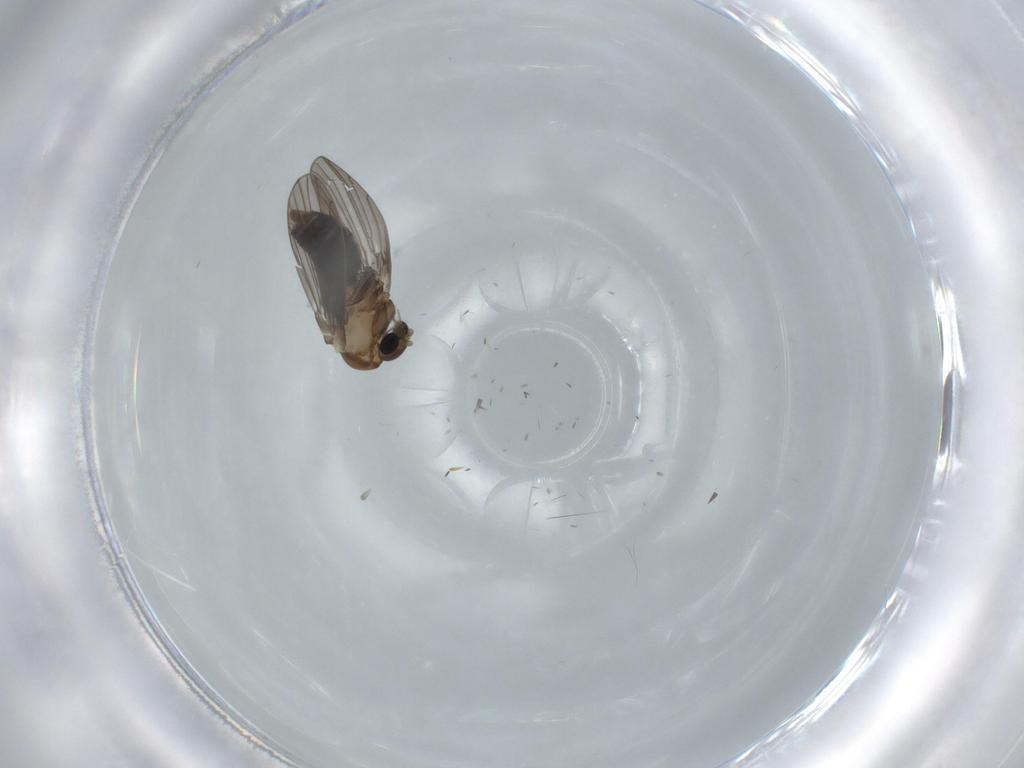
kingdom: Animalia
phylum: Arthropoda
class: Insecta
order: Diptera
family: Psychodidae
